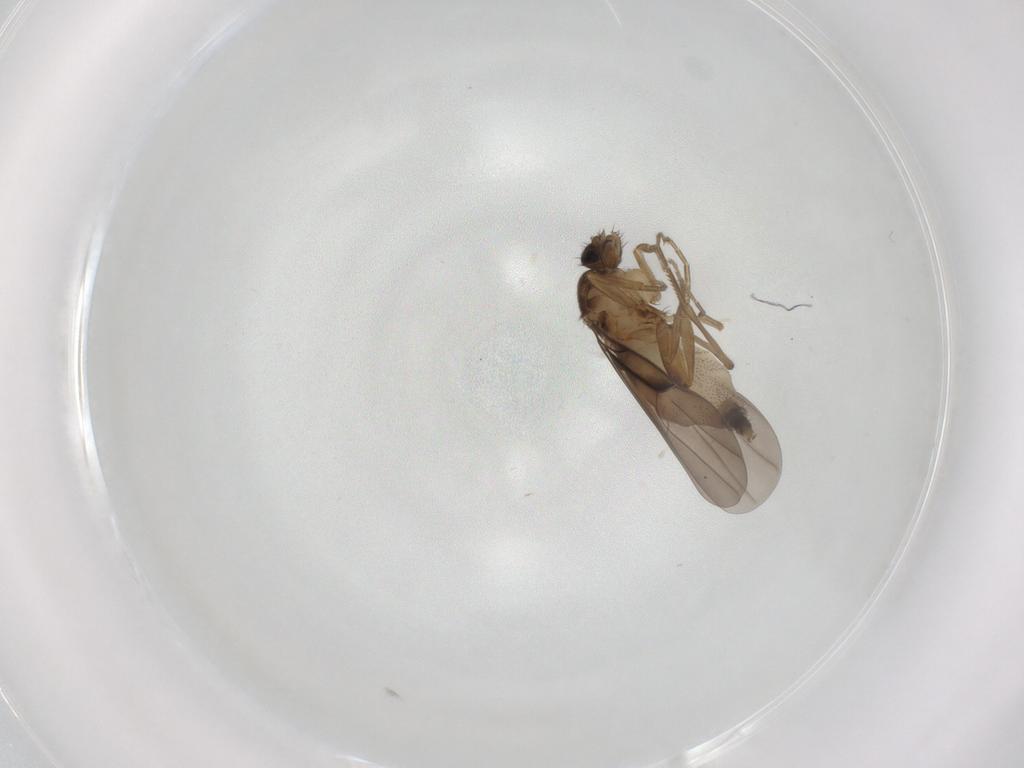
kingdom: Animalia
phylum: Arthropoda
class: Insecta
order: Diptera
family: Phoridae
